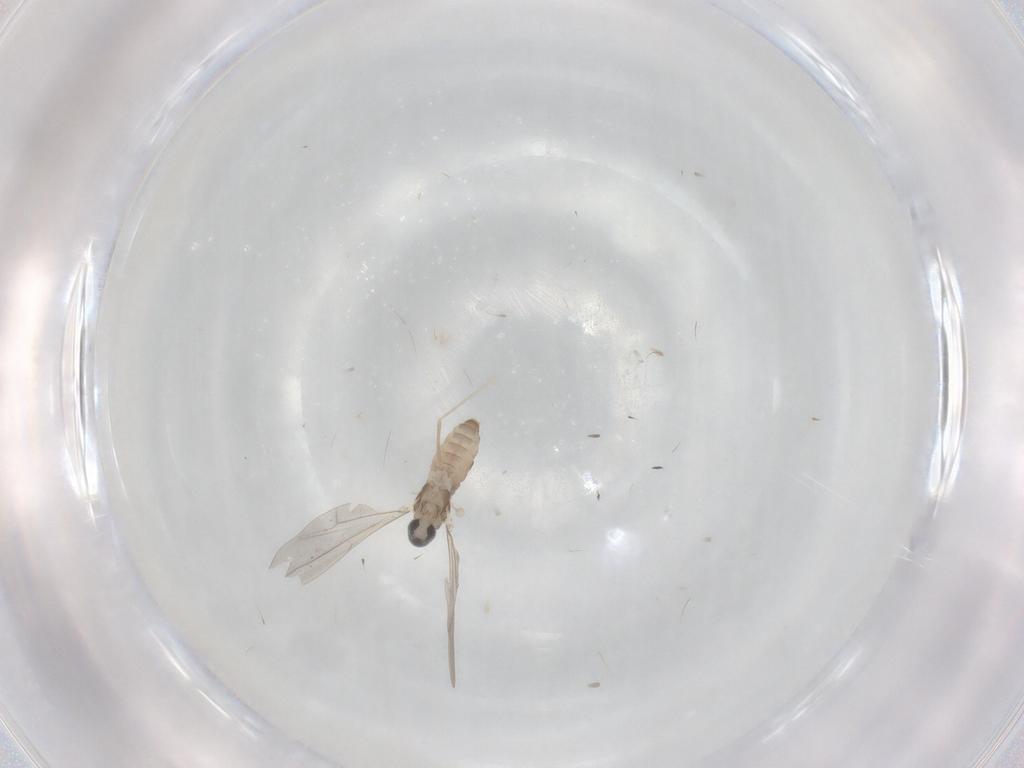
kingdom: Animalia
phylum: Arthropoda
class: Insecta
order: Diptera
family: Cecidomyiidae
